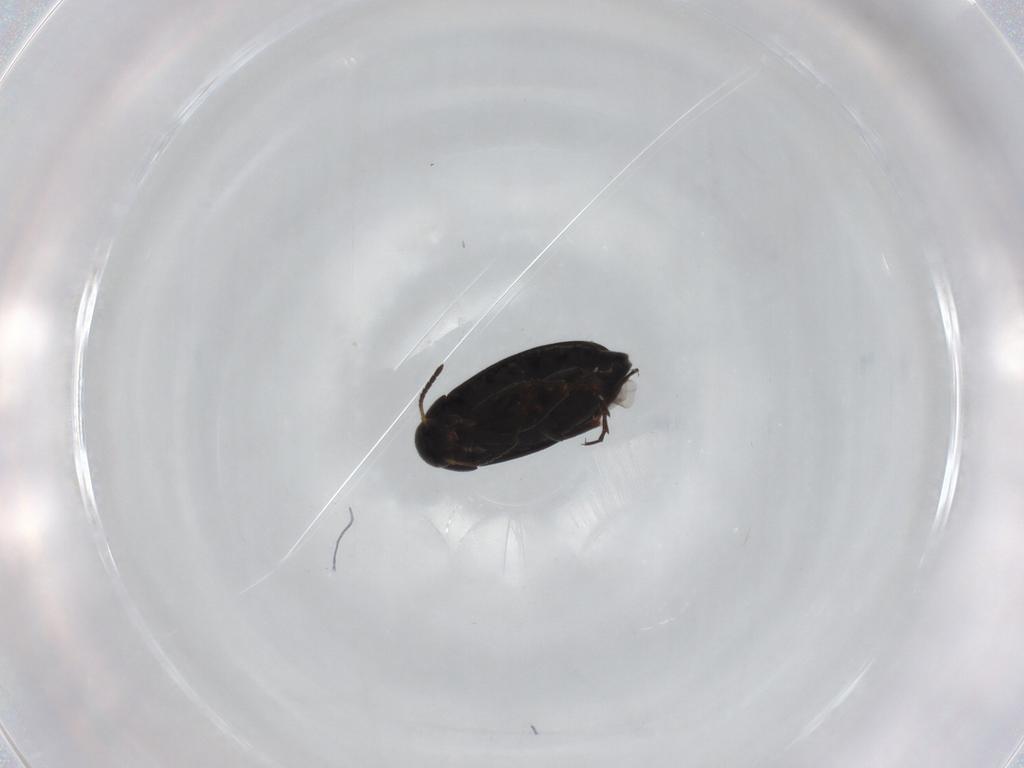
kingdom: Animalia
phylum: Arthropoda
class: Insecta
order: Coleoptera
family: Scraptiidae
